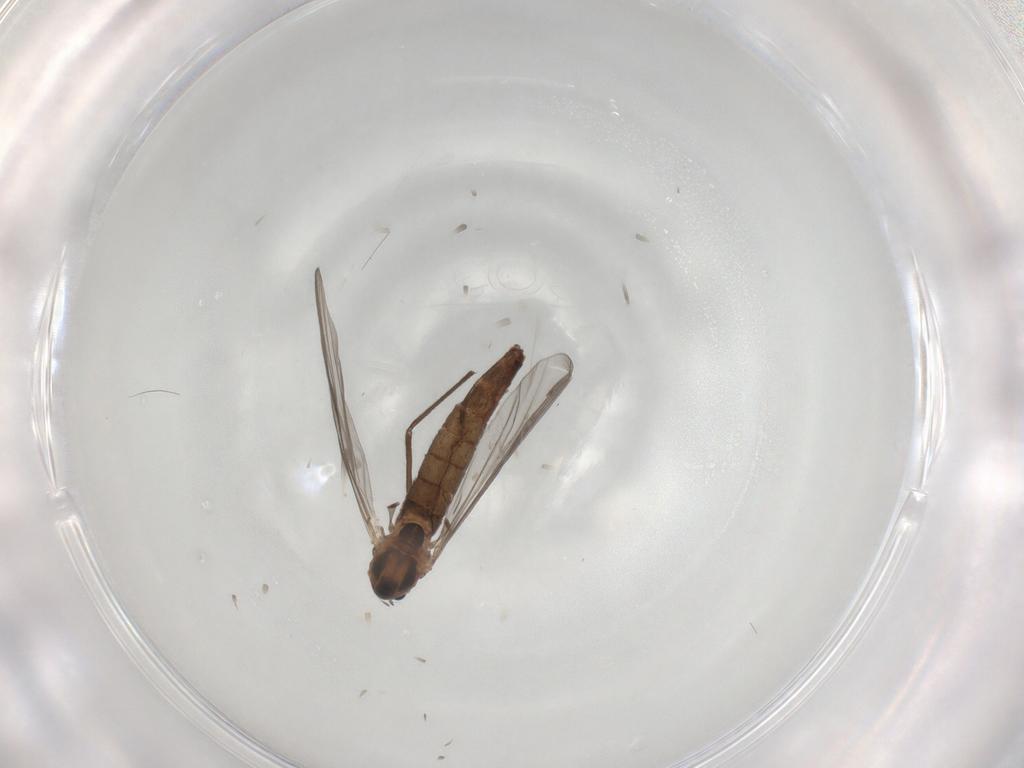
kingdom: Animalia
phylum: Arthropoda
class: Insecta
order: Diptera
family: Chironomidae
